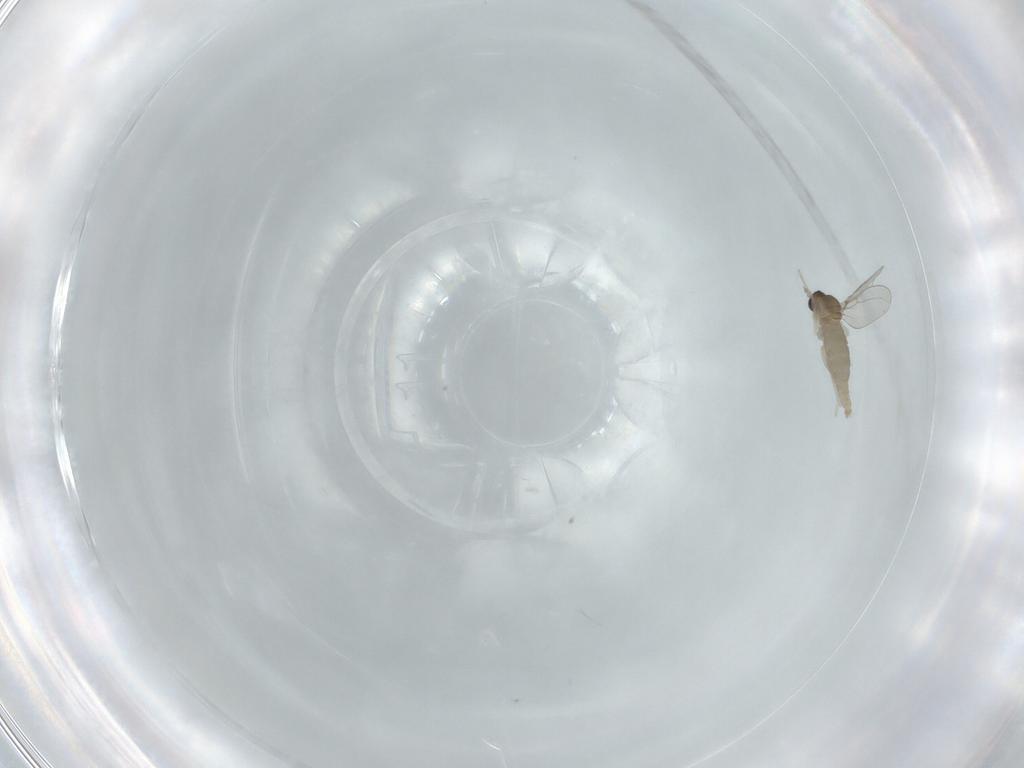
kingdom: Animalia
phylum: Arthropoda
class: Insecta
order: Diptera
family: Cecidomyiidae
